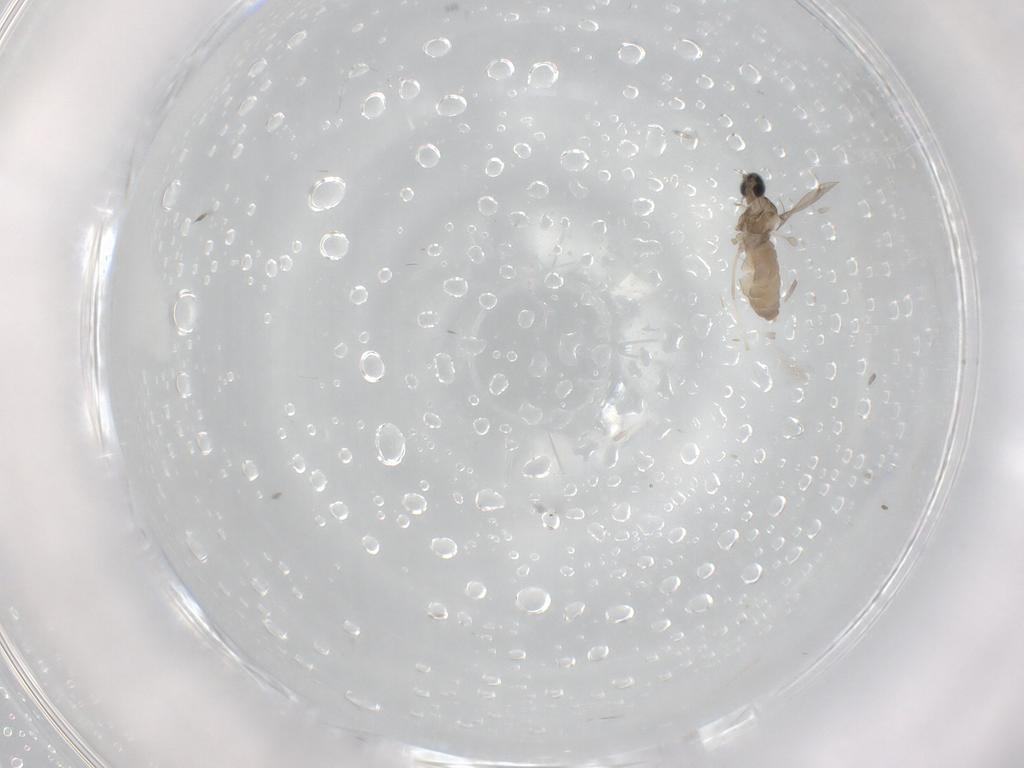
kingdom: Animalia
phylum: Arthropoda
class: Insecta
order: Diptera
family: Cecidomyiidae
